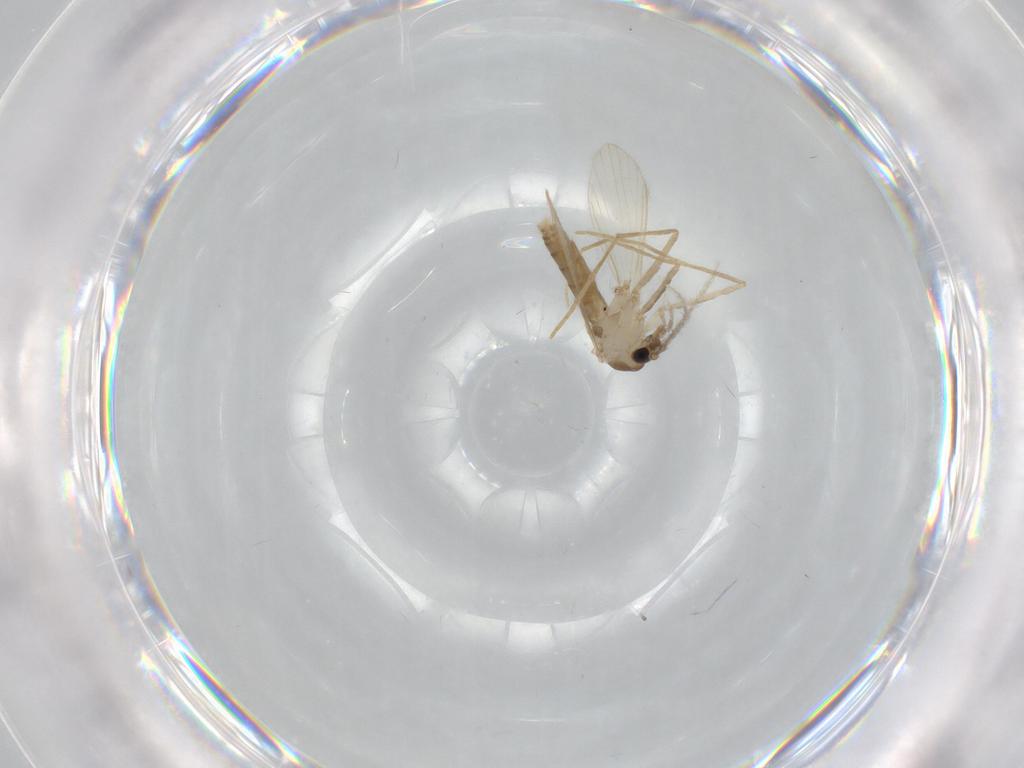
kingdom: Animalia
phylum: Arthropoda
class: Insecta
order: Diptera
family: Psychodidae
